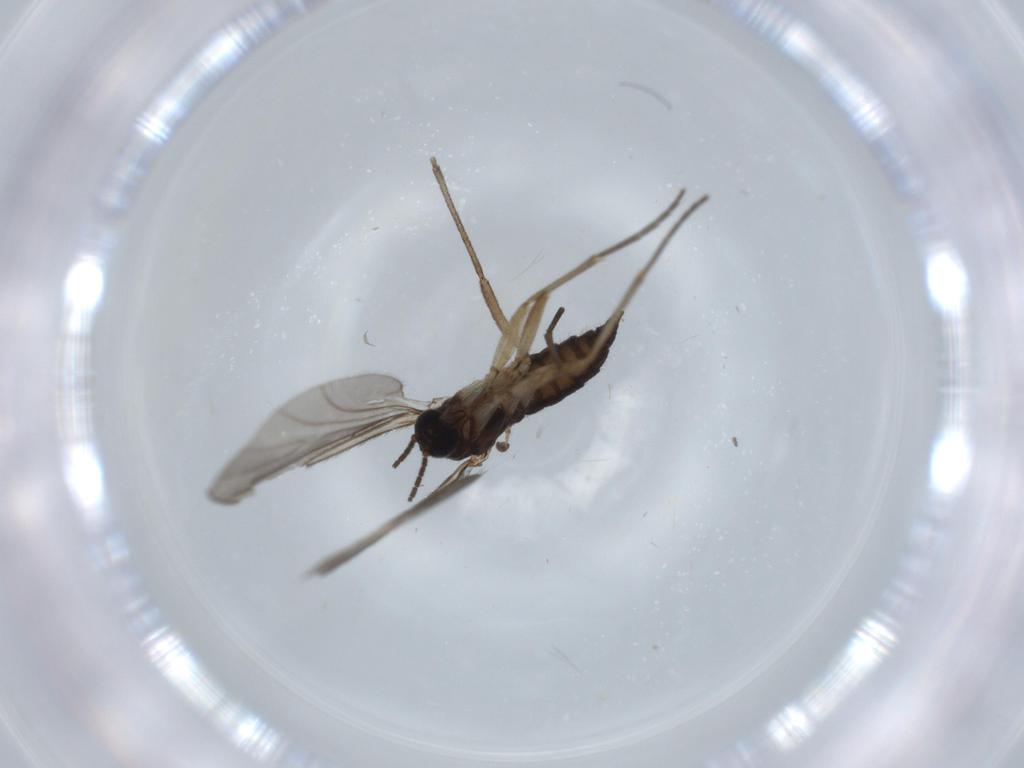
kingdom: Animalia
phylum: Arthropoda
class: Insecta
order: Diptera
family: Sciaridae
